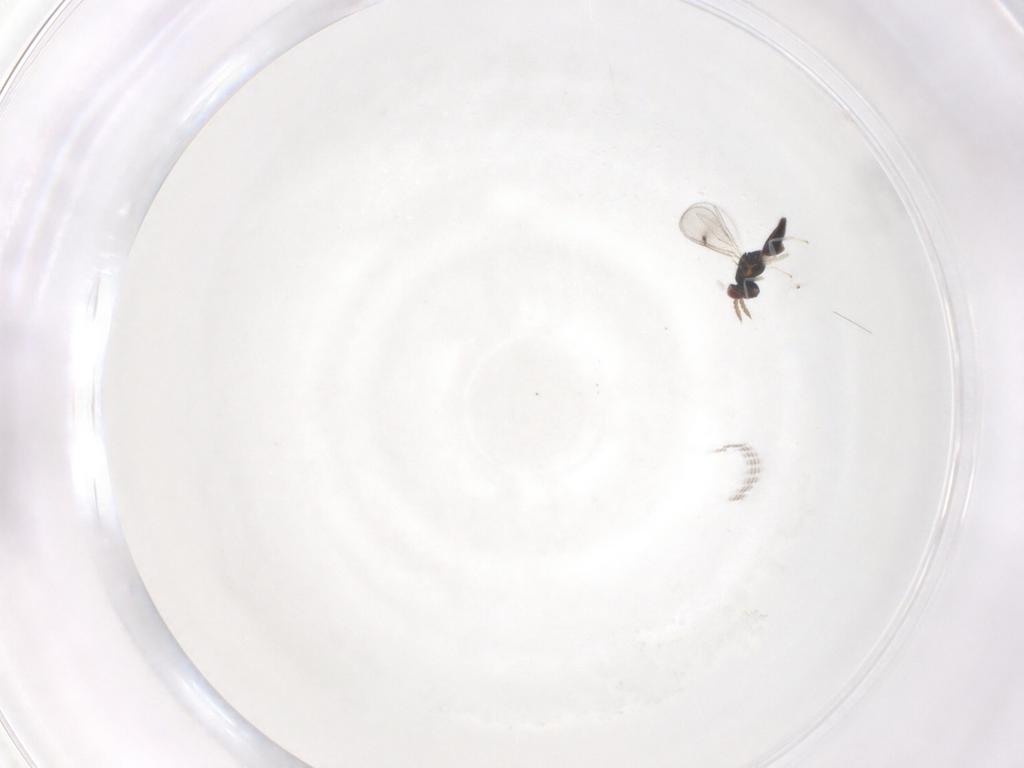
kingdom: Animalia
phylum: Arthropoda
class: Insecta
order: Hymenoptera
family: Eulophidae
